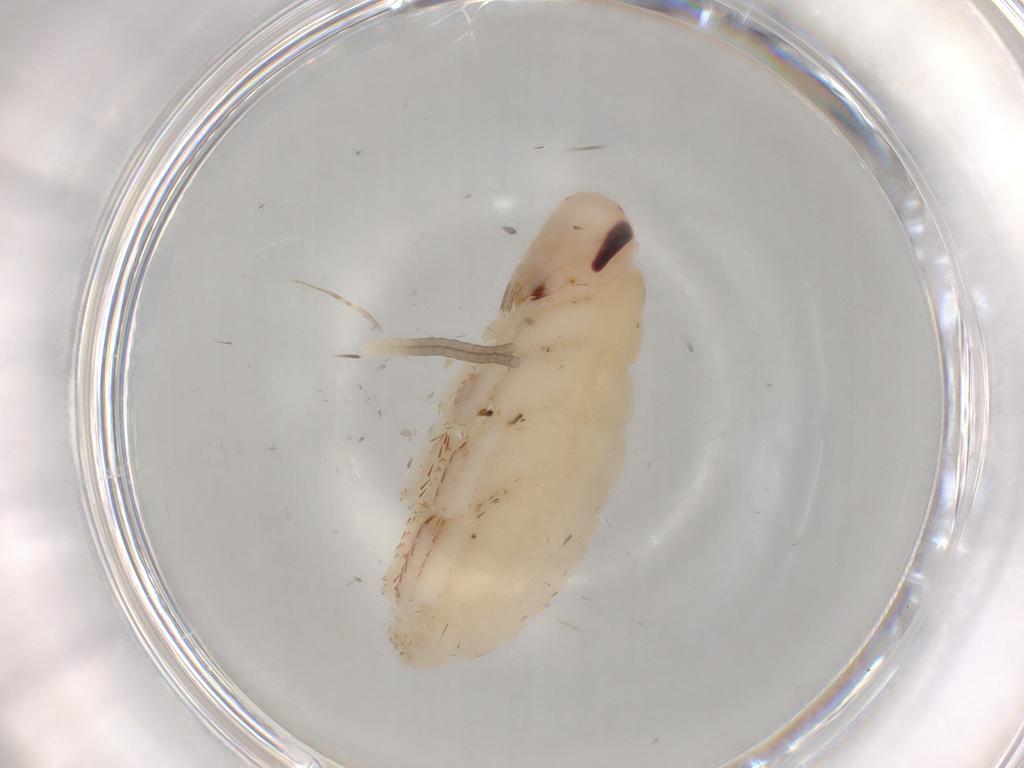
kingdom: Animalia
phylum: Arthropoda
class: Insecta
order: Blattodea
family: Blaberidae
